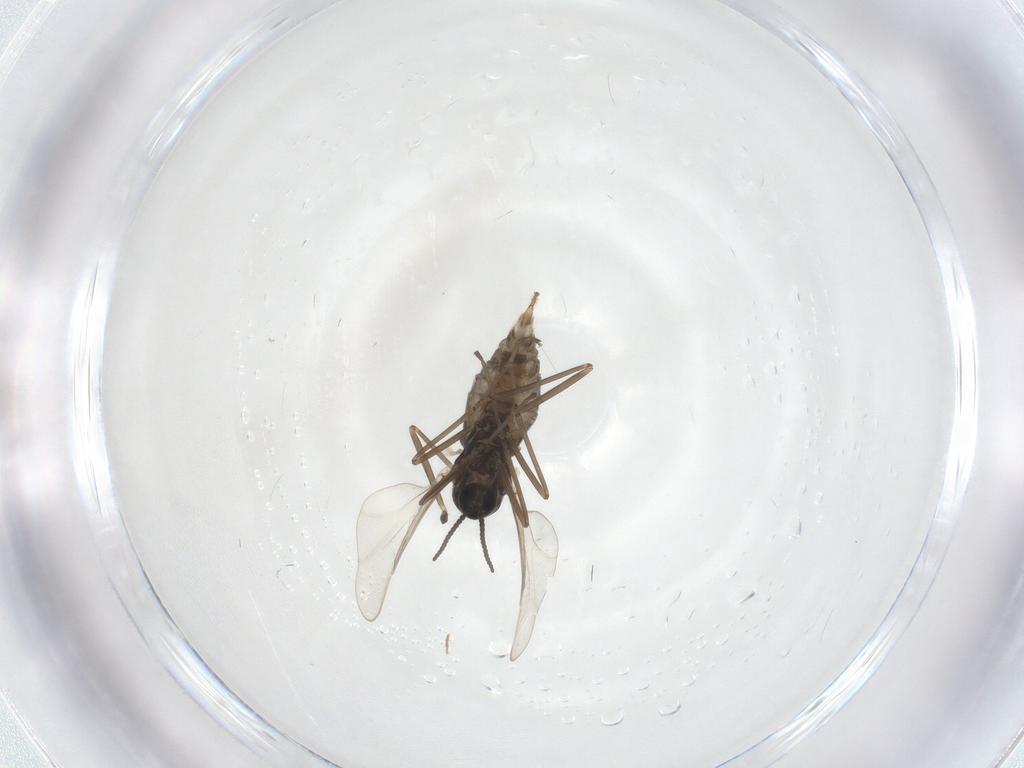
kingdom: Animalia
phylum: Arthropoda
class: Insecta
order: Diptera
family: Cecidomyiidae
